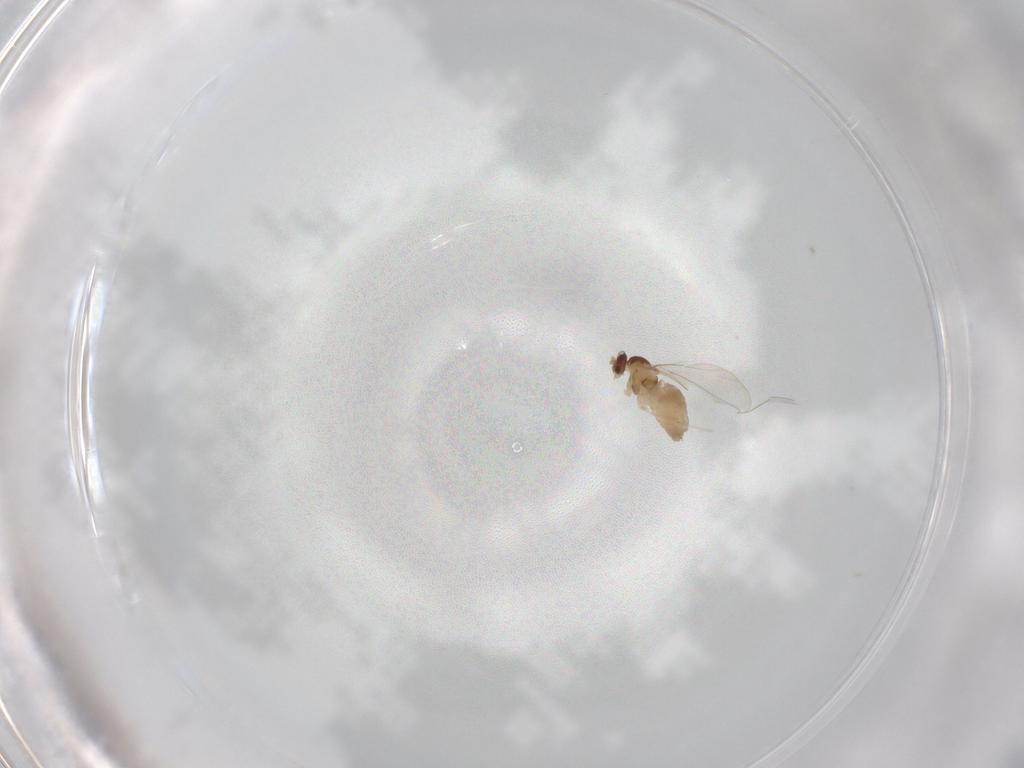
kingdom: Animalia
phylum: Arthropoda
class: Insecta
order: Diptera
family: Cecidomyiidae
